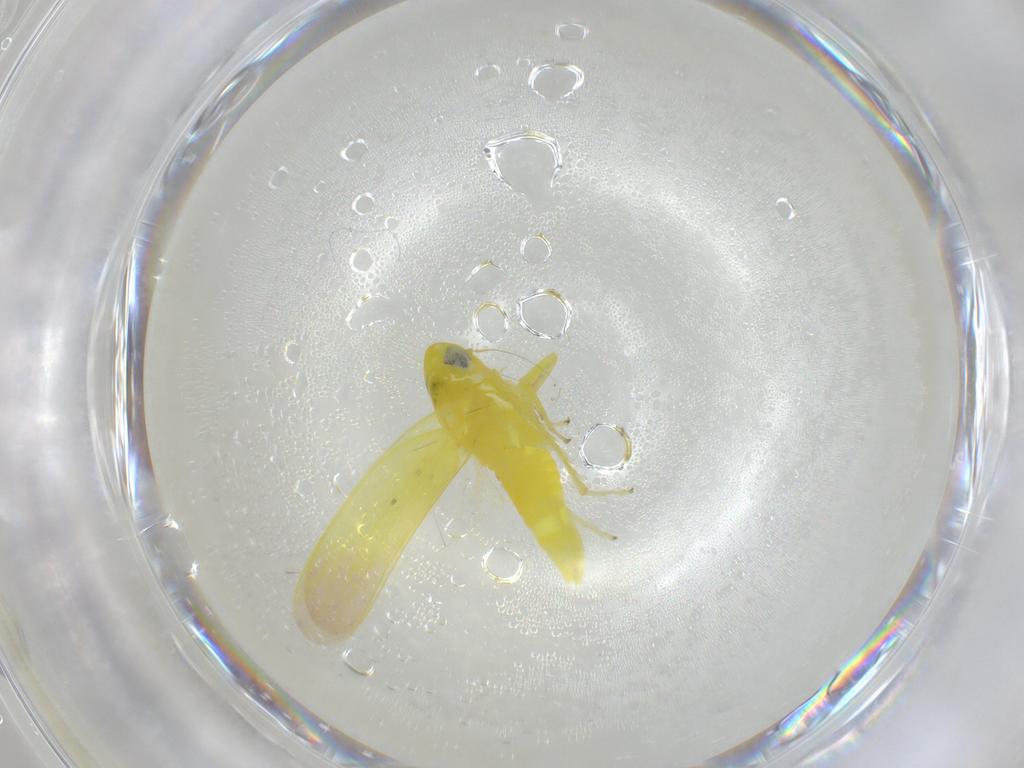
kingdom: Animalia
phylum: Arthropoda
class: Insecta
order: Hemiptera
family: Cicadellidae
